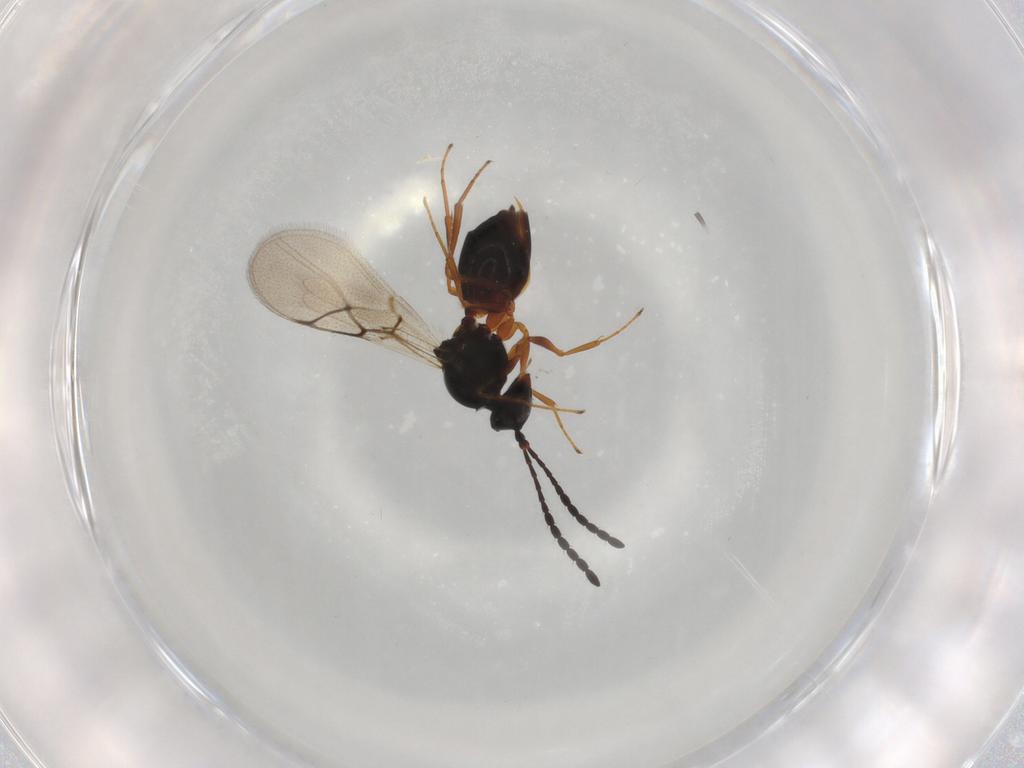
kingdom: Animalia
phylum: Arthropoda
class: Insecta
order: Hymenoptera
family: Figitidae
